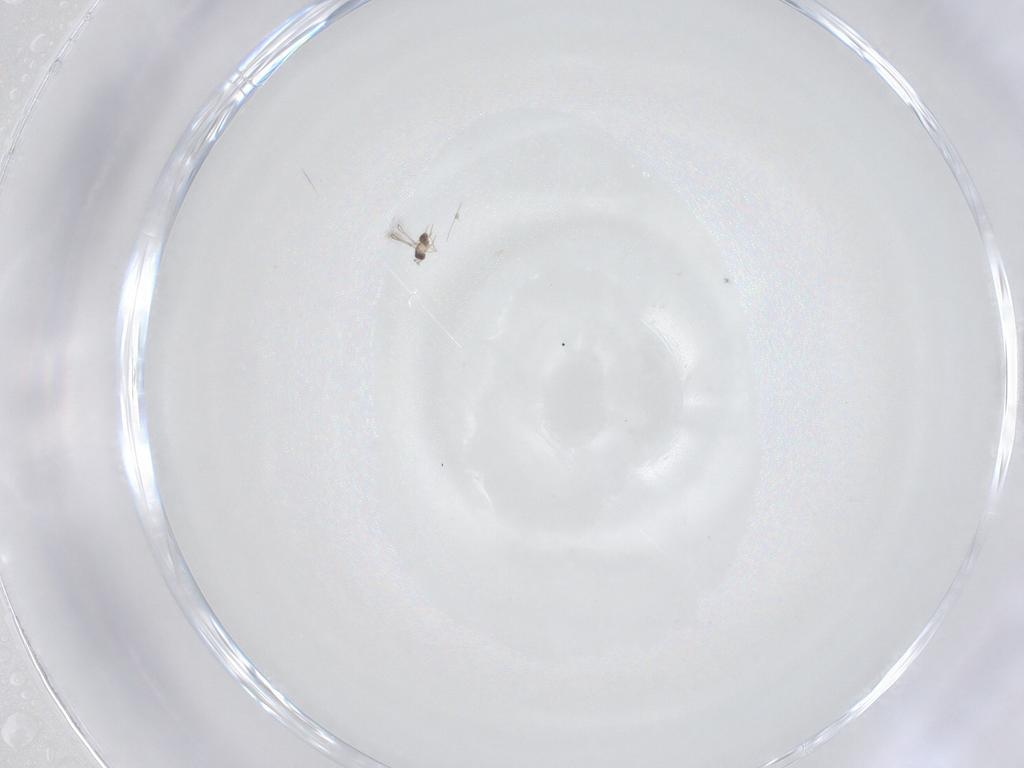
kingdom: Animalia
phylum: Arthropoda
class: Insecta
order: Hymenoptera
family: Mymaridae
